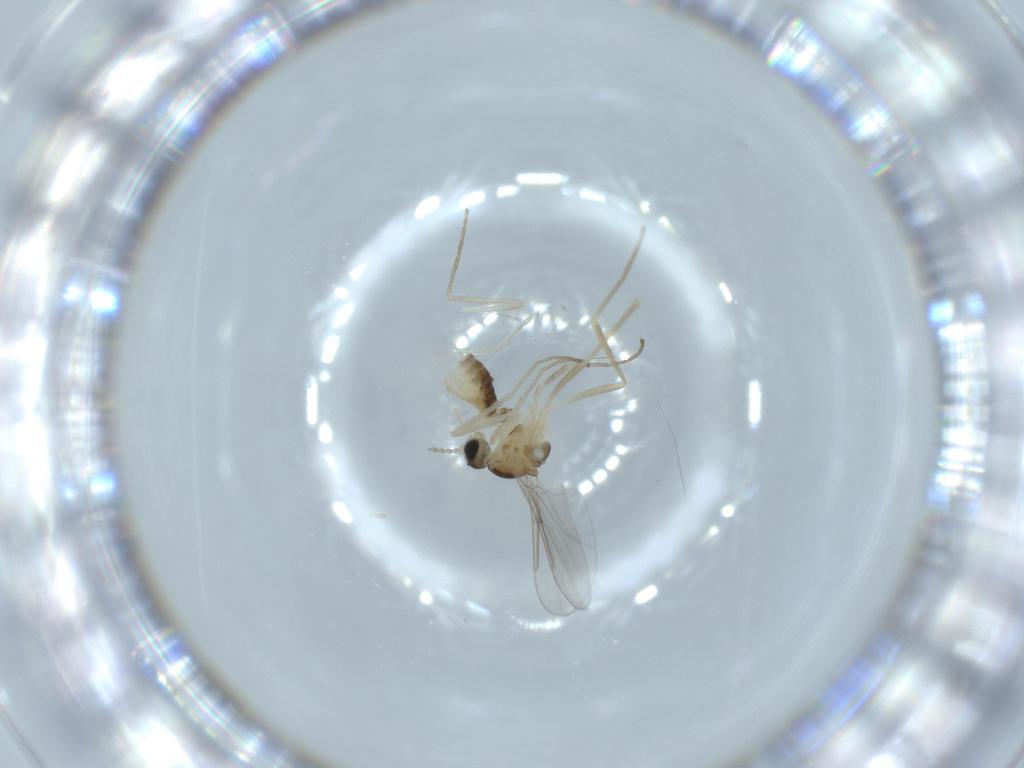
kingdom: Animalia
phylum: Arthropoda
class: Insecta
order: Diptera
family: Cecidomyiidae
